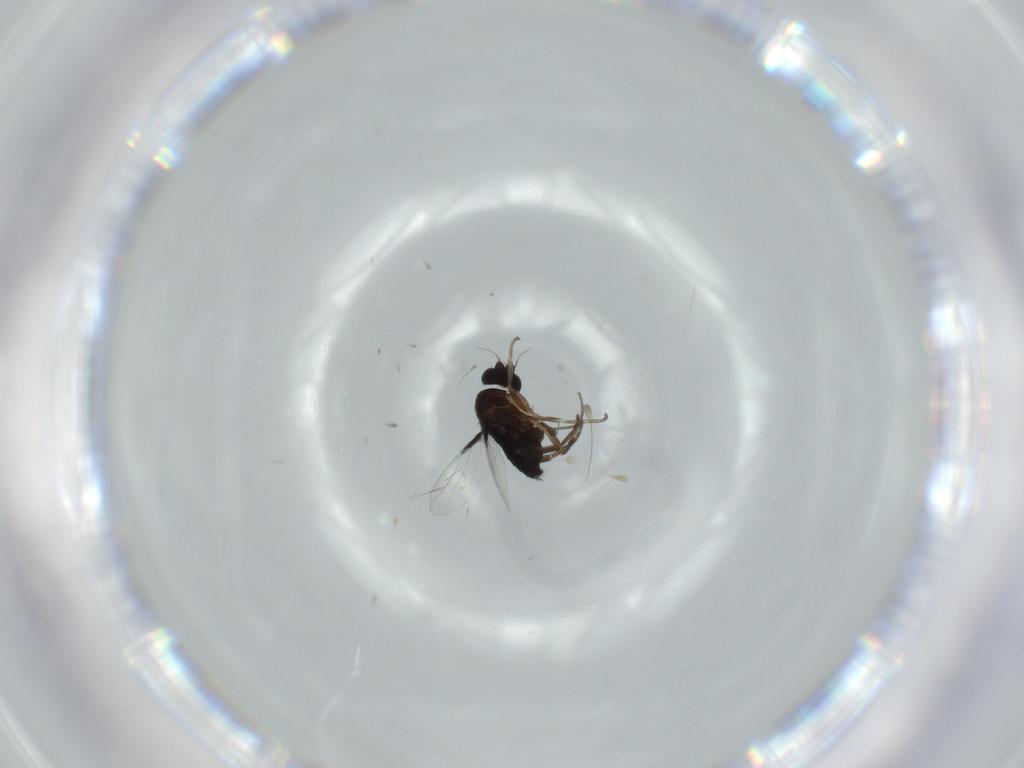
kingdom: Animalia
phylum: Arthropoda
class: Insecta
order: Diptera
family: Phoridae
